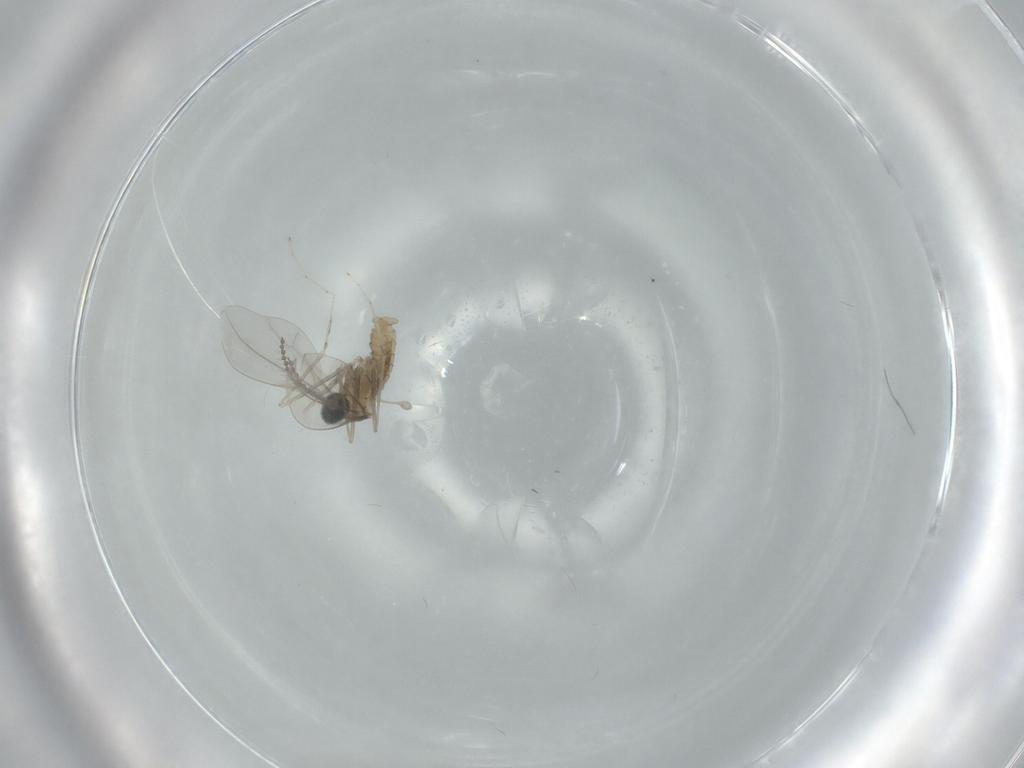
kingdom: Animalia
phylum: Arthropoda
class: Insecta
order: Diptera
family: Cecidomyiidae
